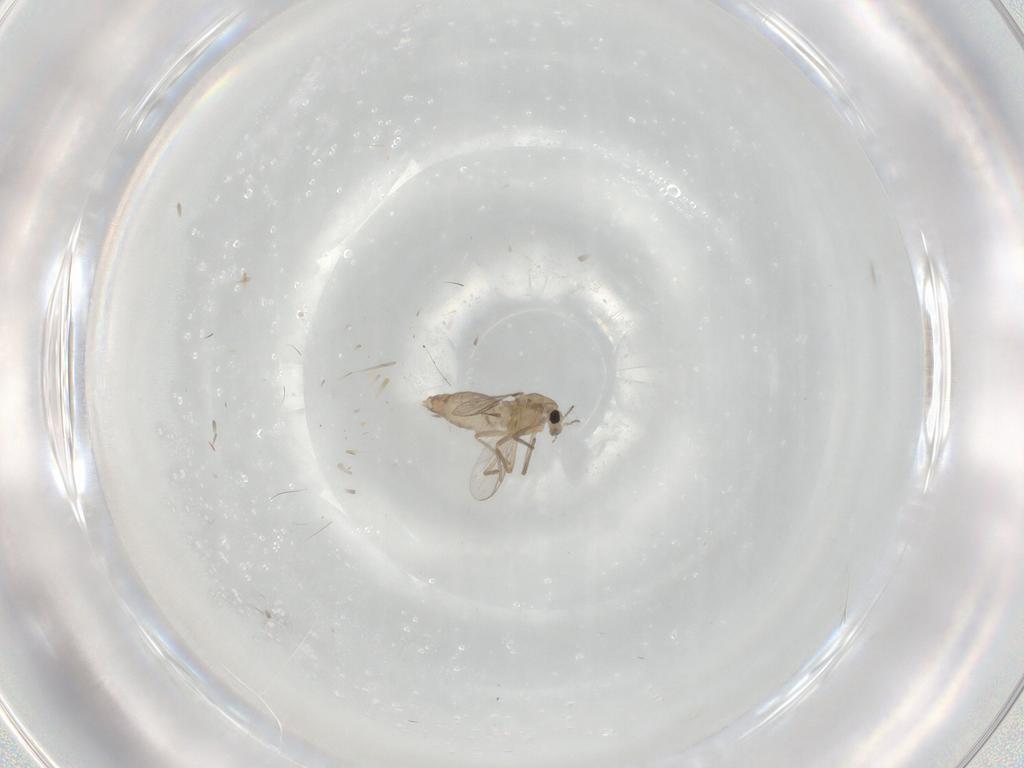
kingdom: Animalia
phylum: Arthropoda
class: Insecta
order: Diptera
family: Chironomidae
